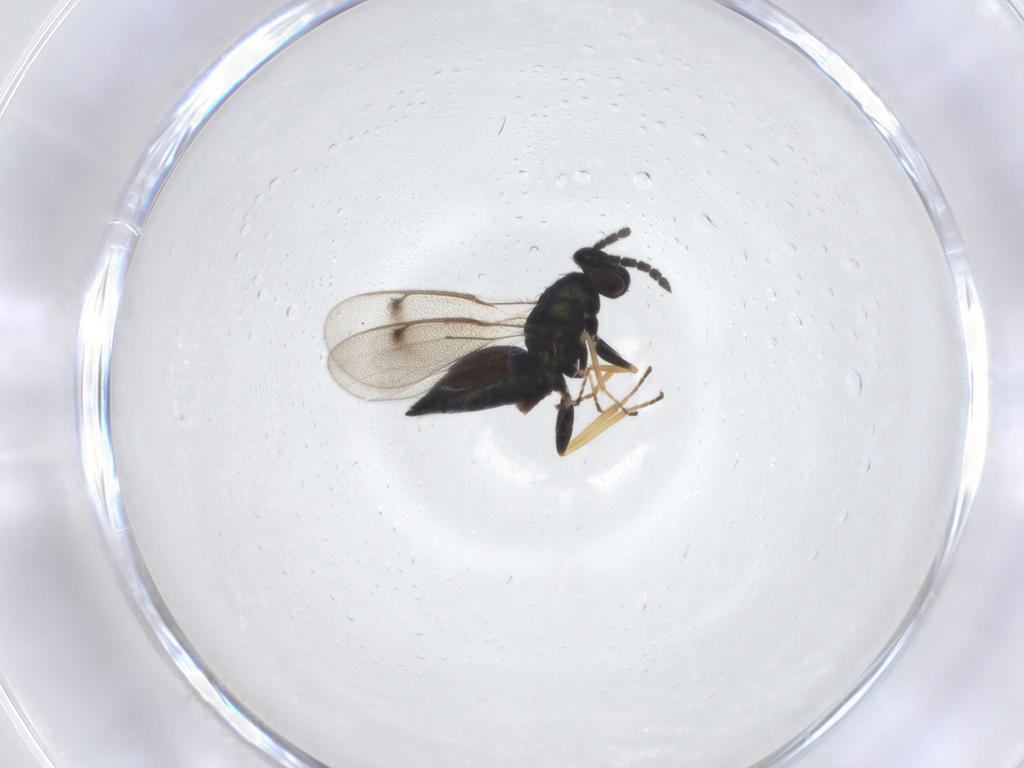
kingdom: Animalia
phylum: Arthropoda
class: Insecta
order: Hymenoptera
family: Eulophidae
